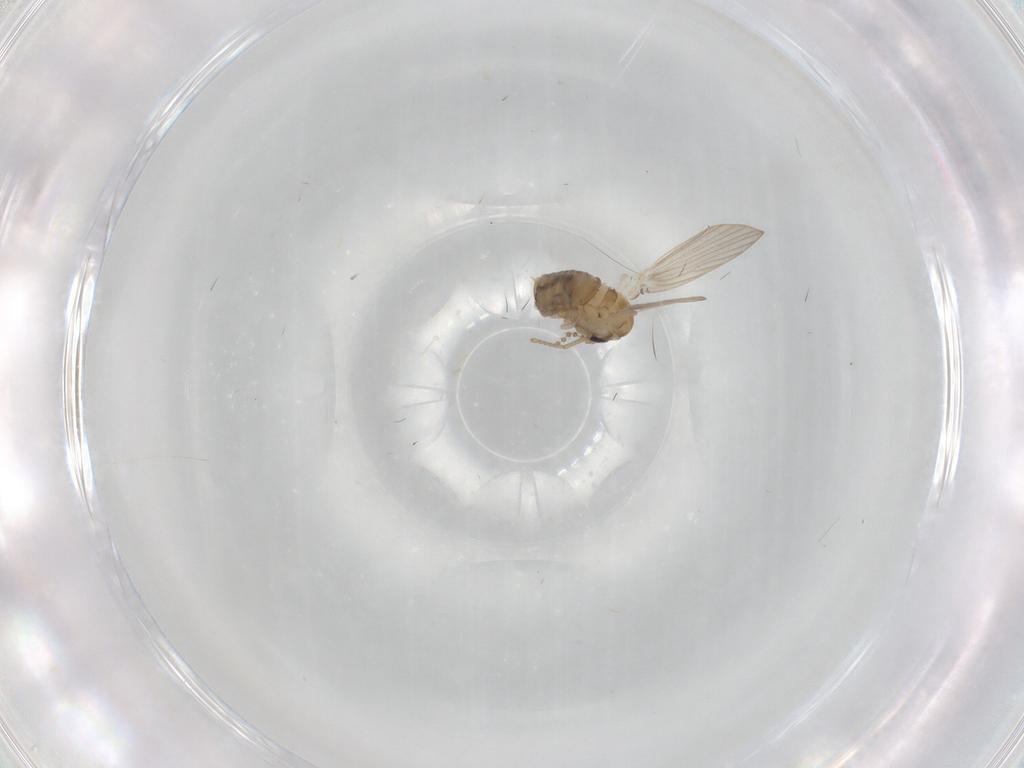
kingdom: Animalia
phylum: Arthropoda
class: Insecta
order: Diptera
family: Psychodidae
